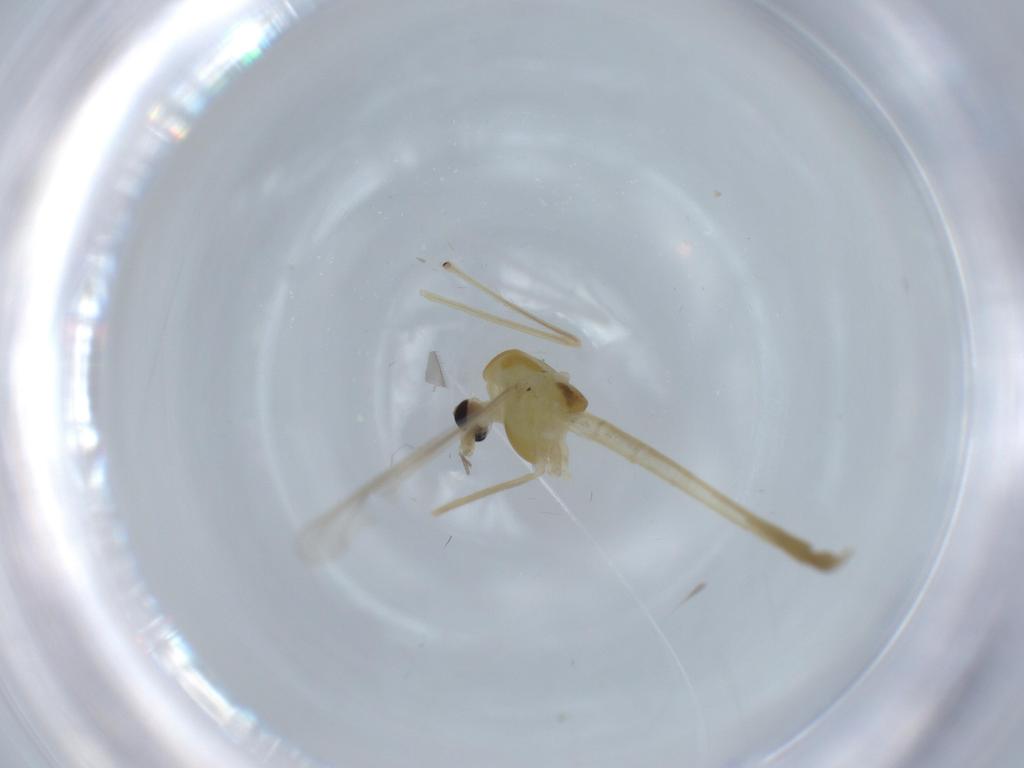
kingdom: Animalia
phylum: Arthropoda
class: Insecta
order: Diptera
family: Chironomidae
